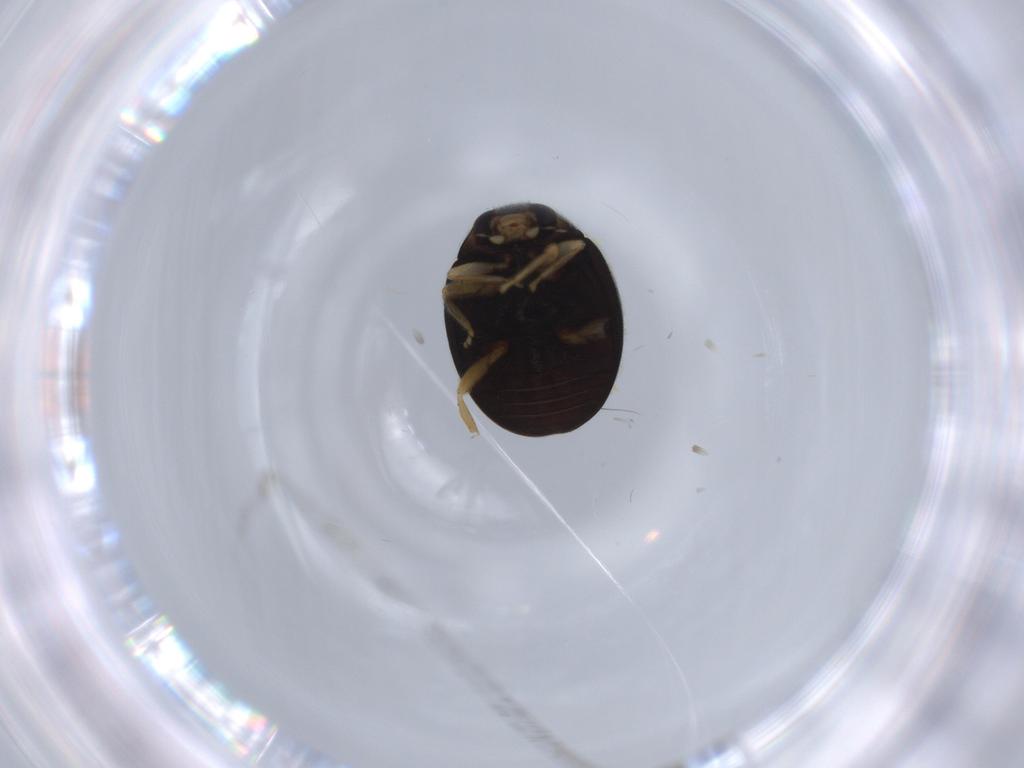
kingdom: Animalia
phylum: Arthropoda
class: Insecta
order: Coleoptera
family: Coccinellidae
